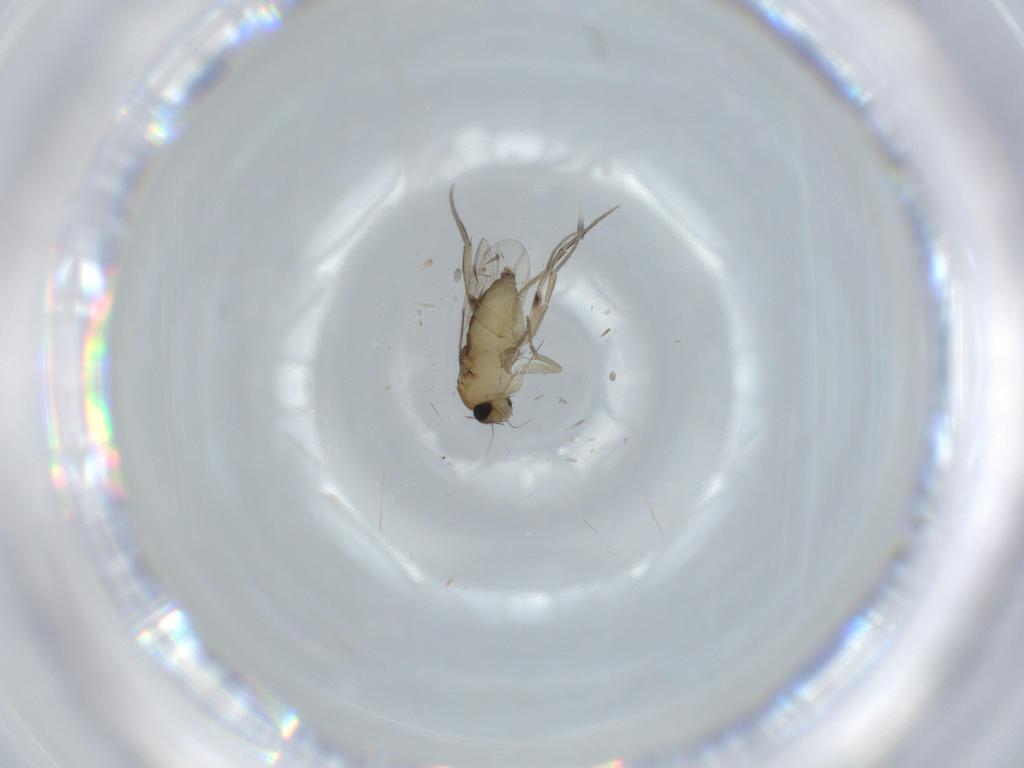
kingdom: Animalia
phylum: Arthropoda
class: Insecta
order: Diptera
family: Phoridae
